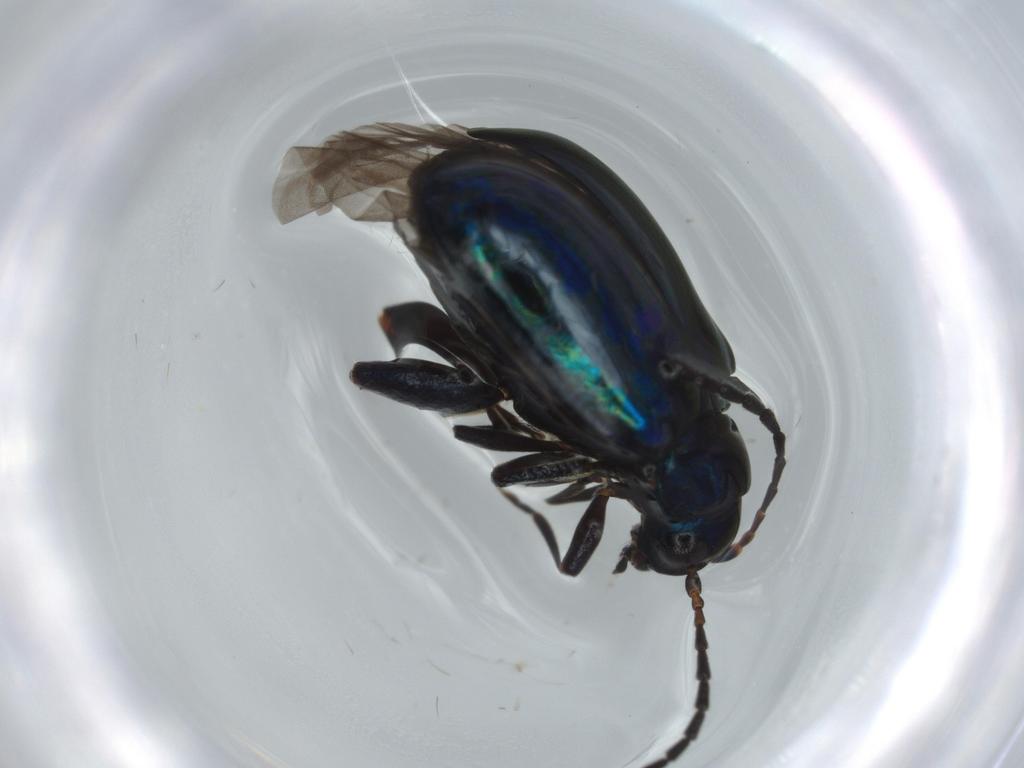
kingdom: Animalia
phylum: Arthropoda
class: Insecta
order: Coleoptera
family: Chrysomelidae
